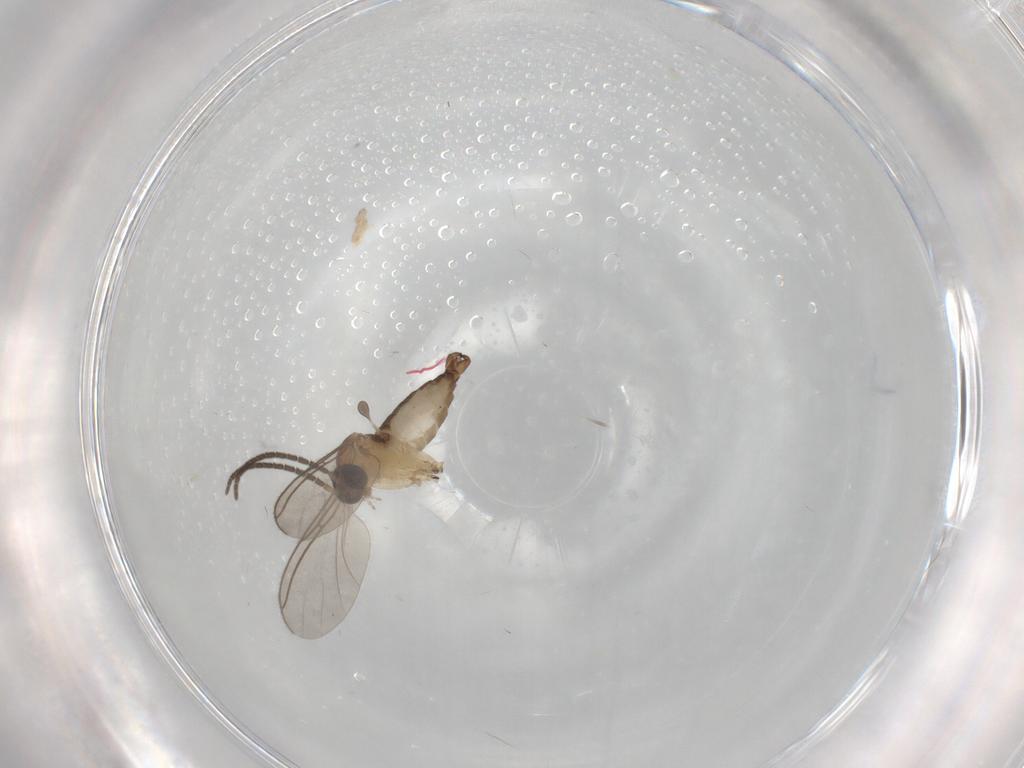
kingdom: Animalia
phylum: Arthropoda
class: Insecta
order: Diptera
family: Sciaridae
